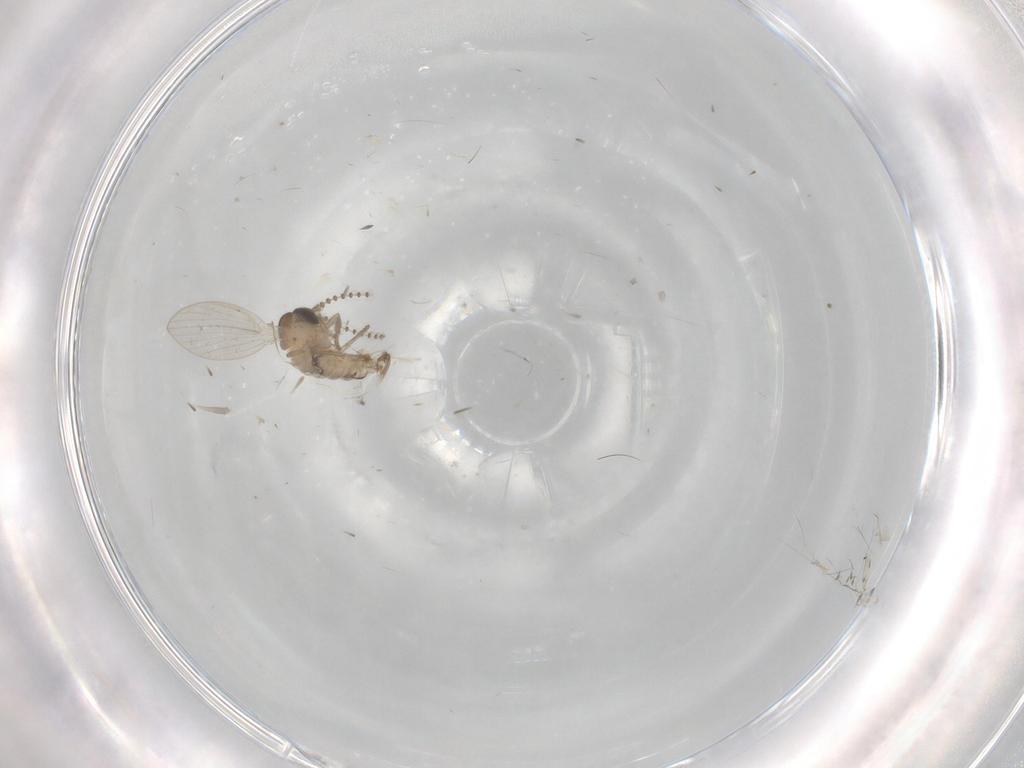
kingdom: Animalia
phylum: Arthropoda
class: Insecta
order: Diptera
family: Psychodidae
